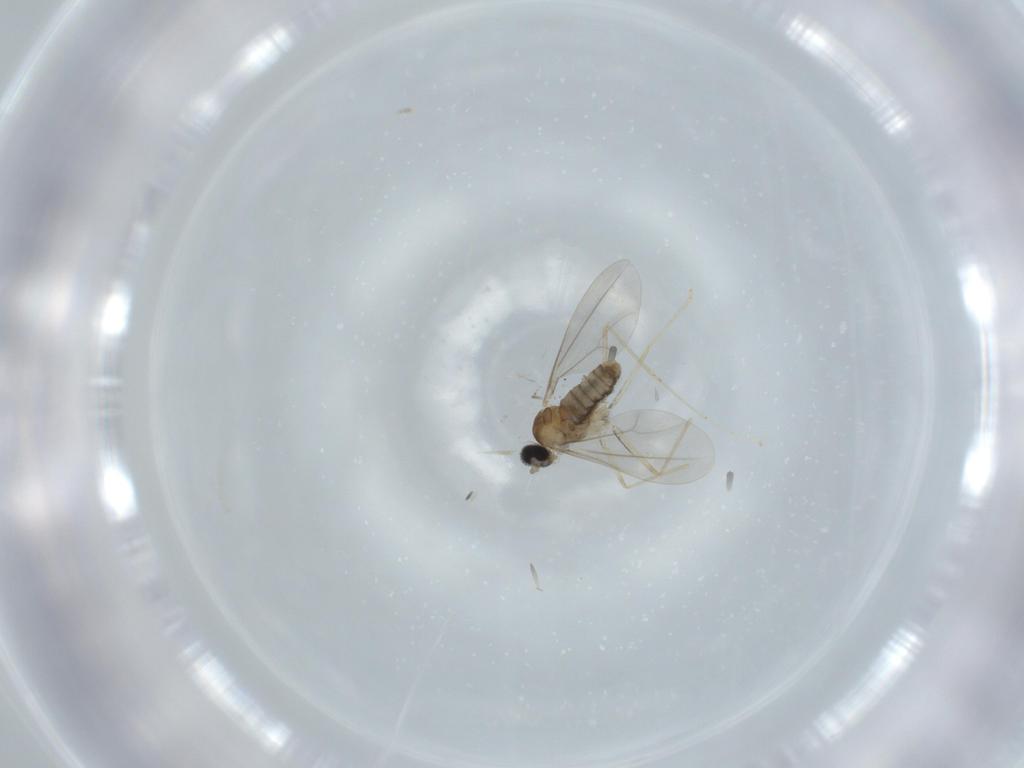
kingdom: Animalia
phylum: Arthropoda
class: Insecta
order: Diptera
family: Cecidomyiidae
